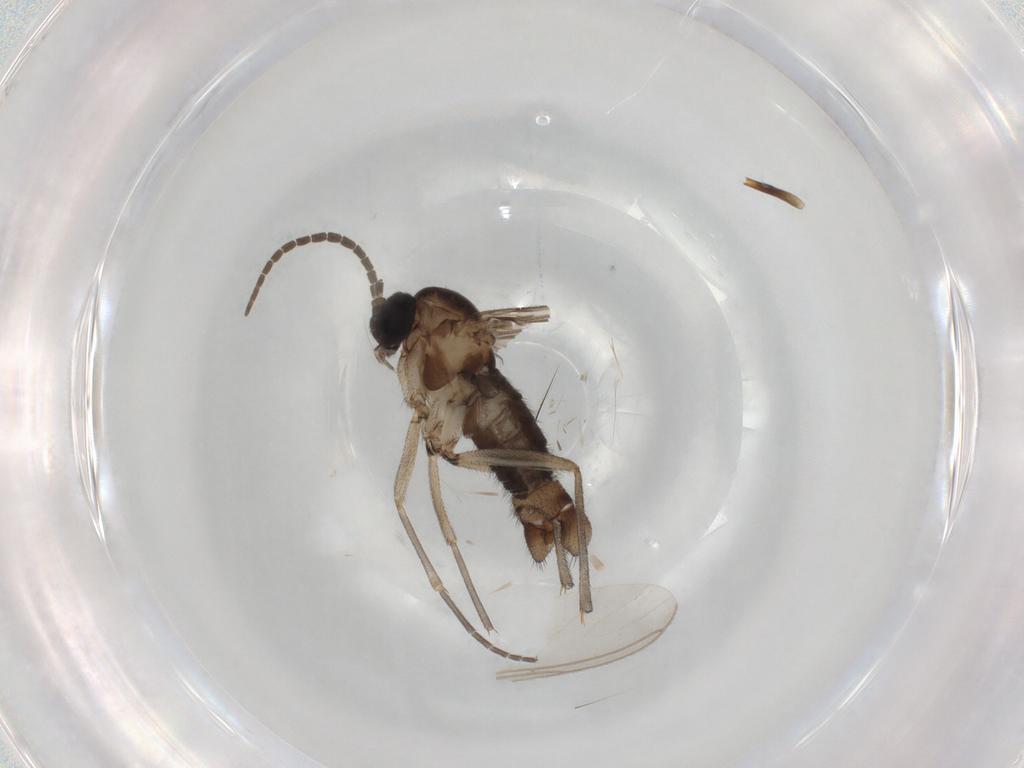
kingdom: Animalia
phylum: Arthropoda
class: Insecta
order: Diptera
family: Sciaridae
